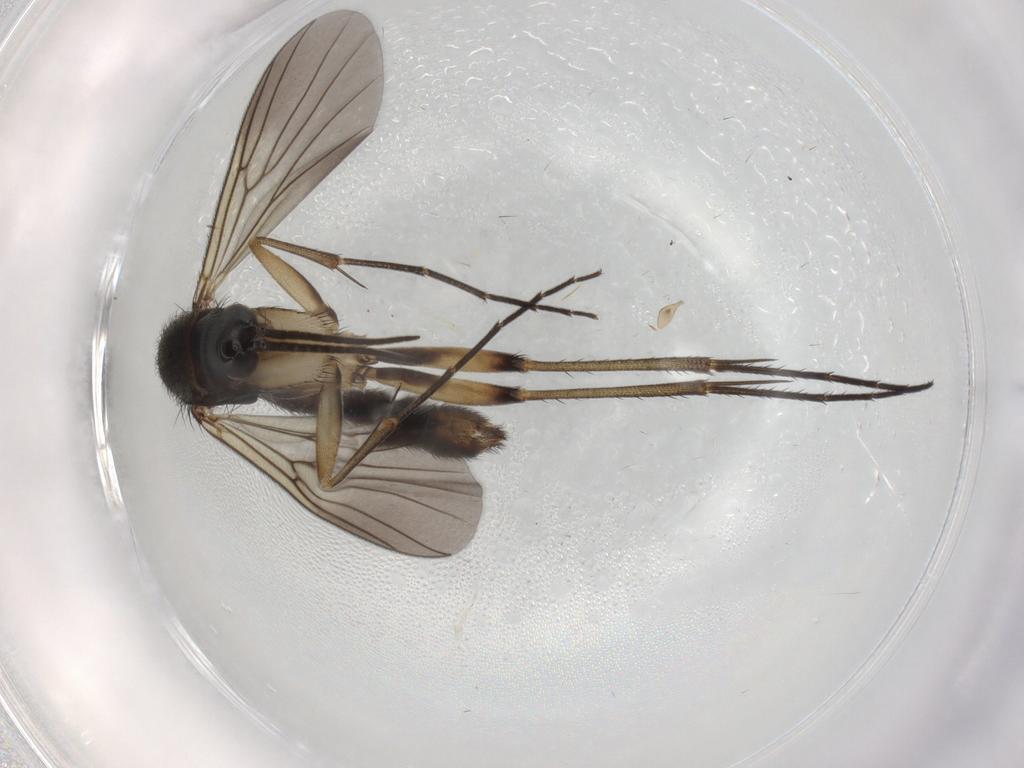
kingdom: Animalia
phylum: Arthropoda
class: Insecta
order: Diptera
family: Mycetophilidae
